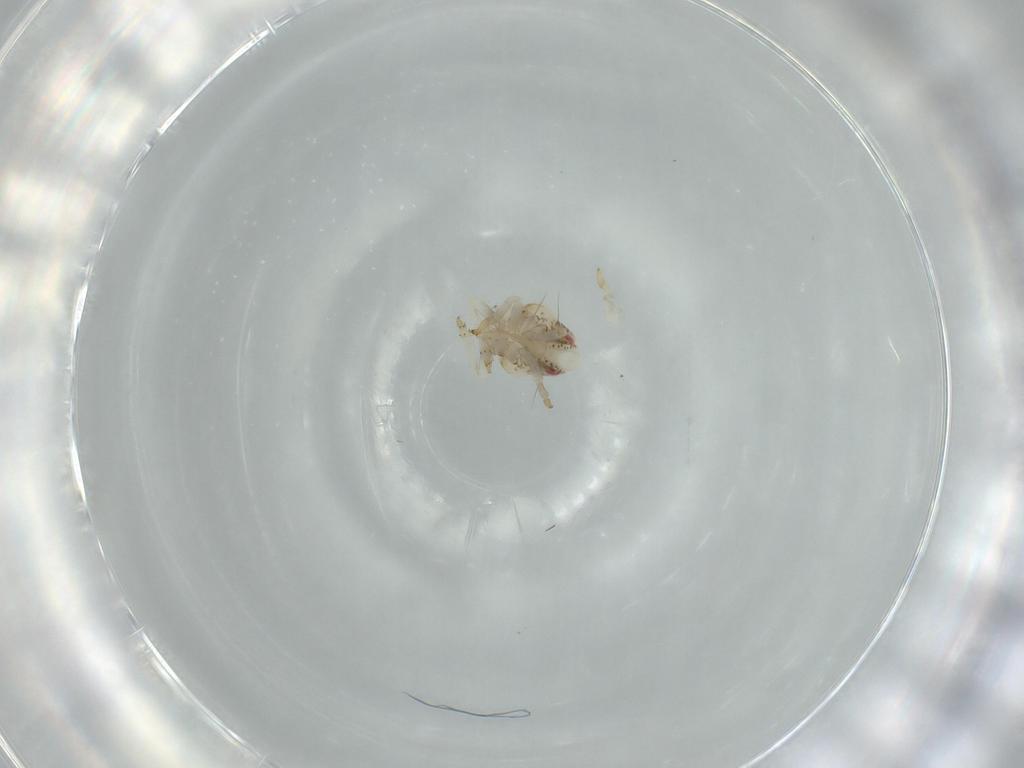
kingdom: Animalia
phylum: Arthropoda
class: Insecta
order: Hemiptera
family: Acanaloniidae
